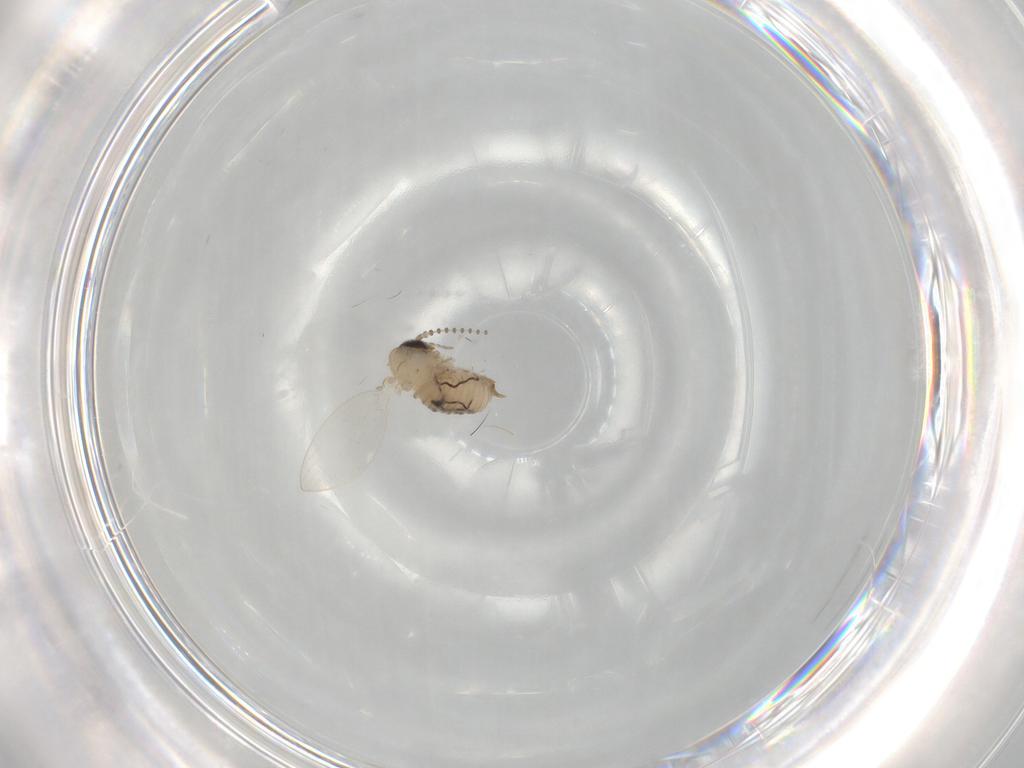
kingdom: Animalia
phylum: Arthropoda
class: Insecta
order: Diptera
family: Psychodidae
